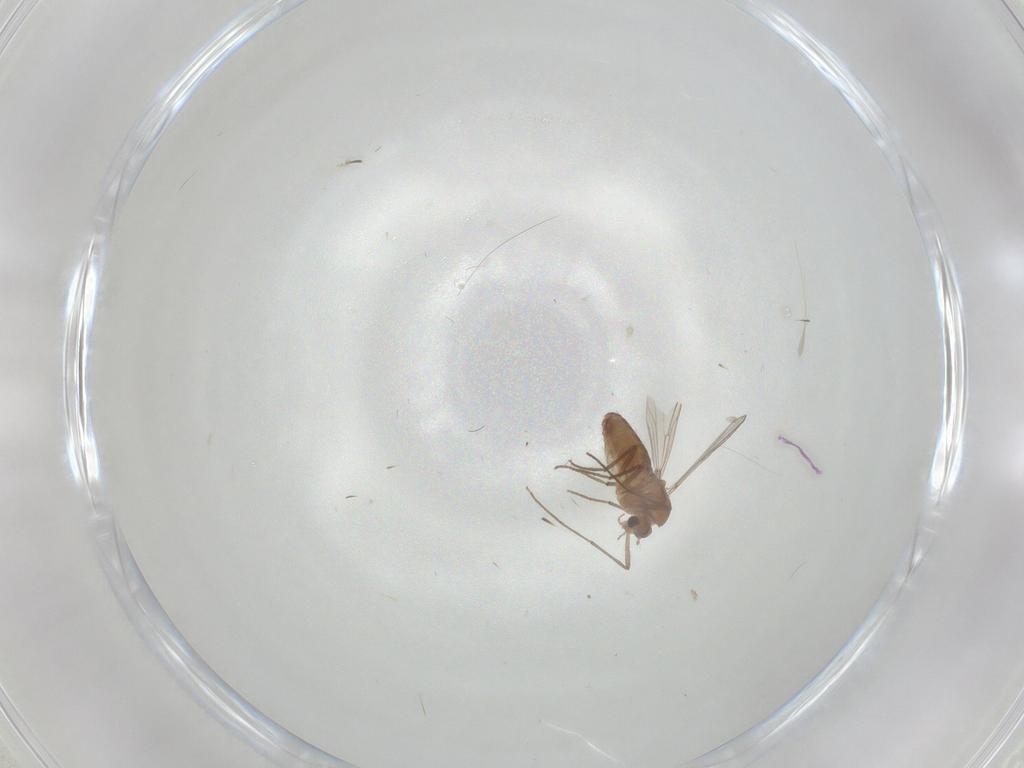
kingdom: Animalia
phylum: Arthropoda
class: Insecta
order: Diptera
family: Chironomidae
